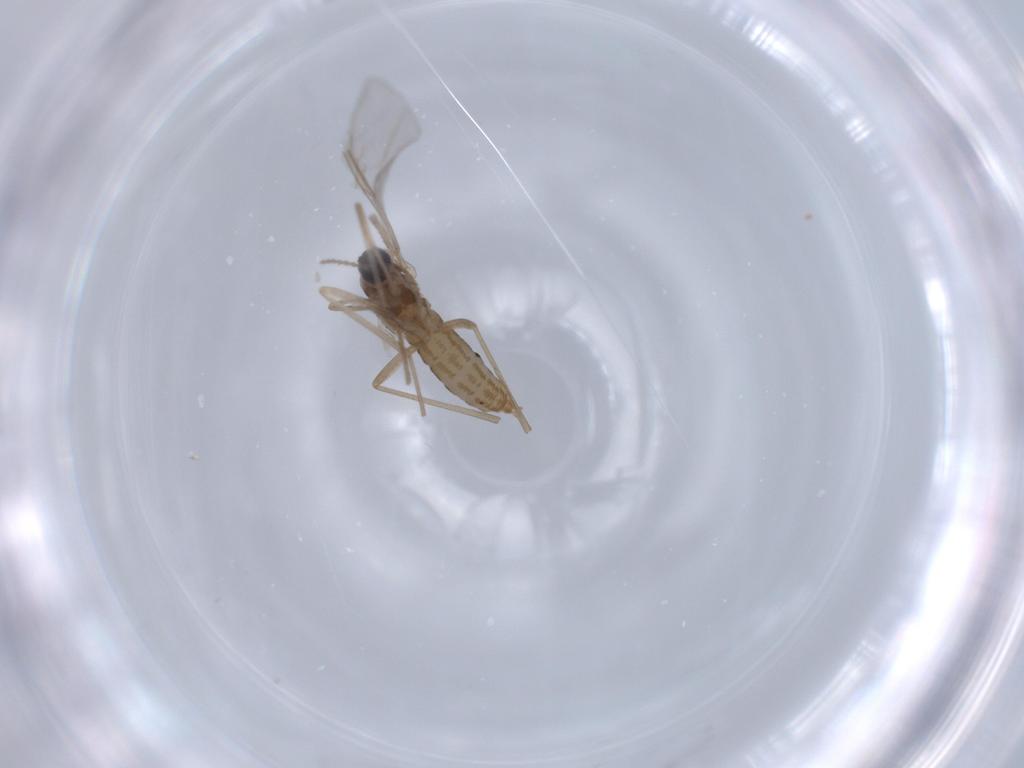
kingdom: Animalia
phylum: Arthropoda
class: Insecta
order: Diptera
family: Cecidomyiidae
